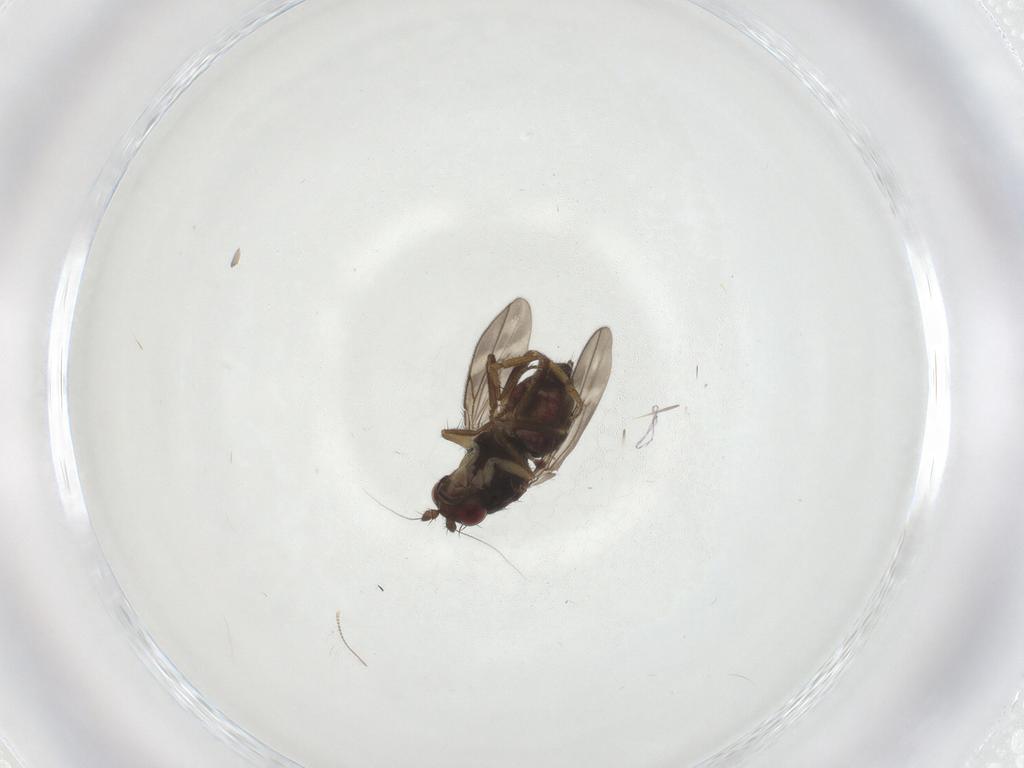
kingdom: Animalia
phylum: Arthropoda
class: Insecta
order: Diptera
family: Sphaeroceridae
